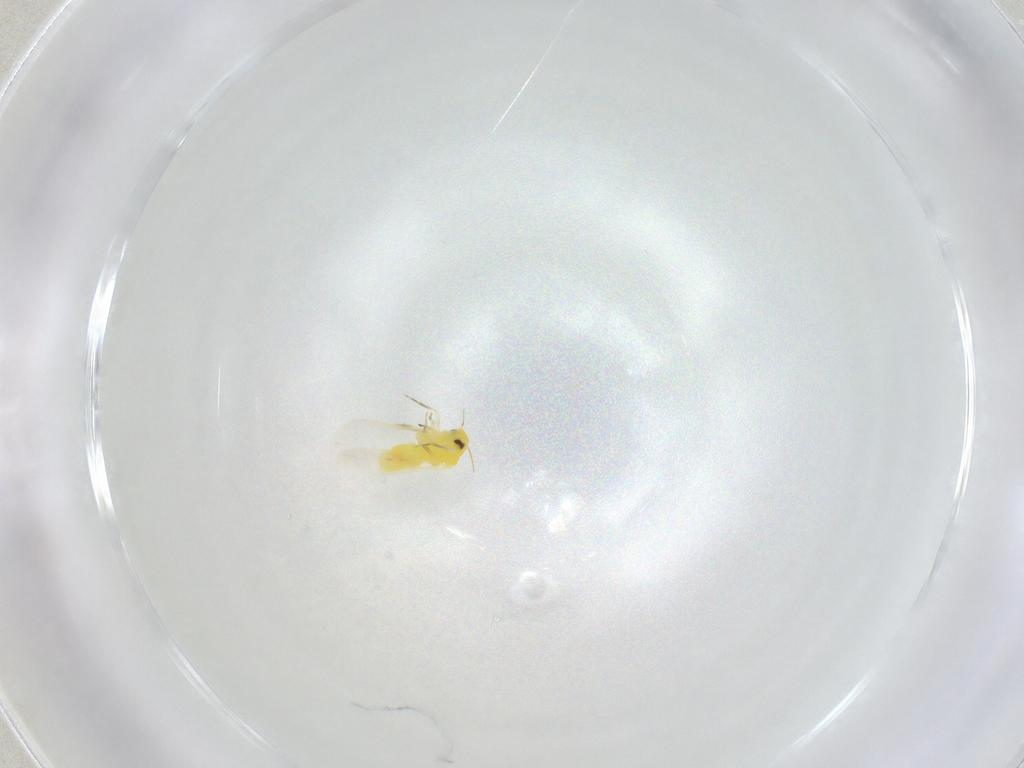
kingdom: Animalia
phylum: Arthropoda
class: Insecta
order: Hemiptera
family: Aleyrodidae
